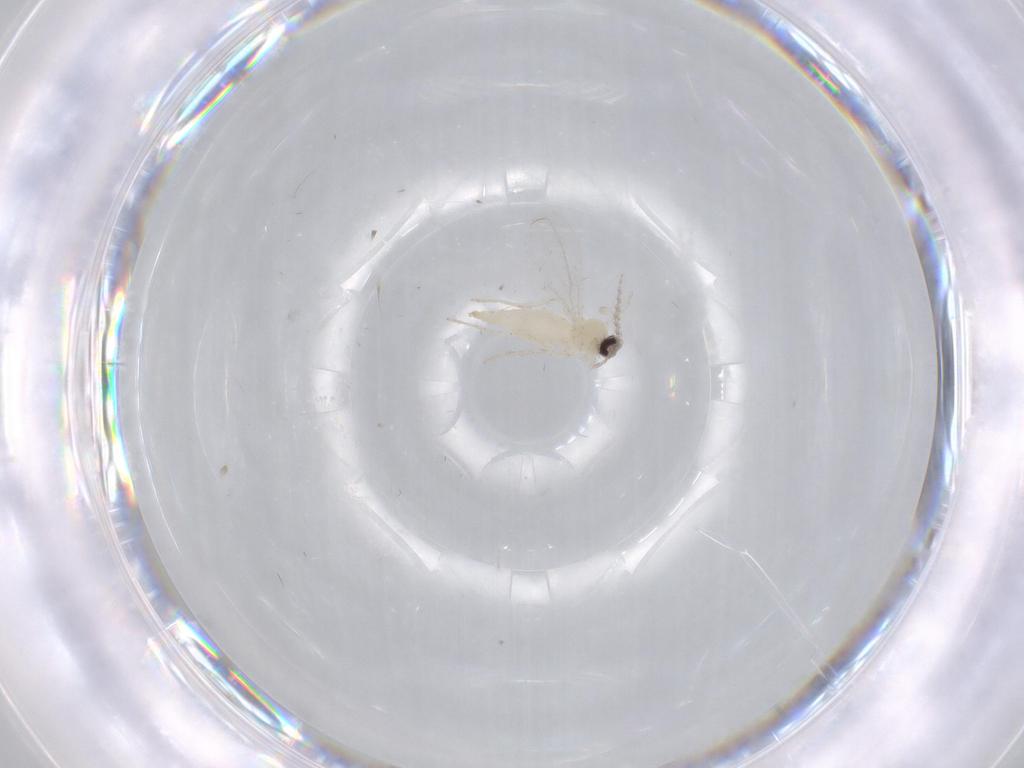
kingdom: Animalia
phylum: Arthropoda
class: Insecta
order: Diptera
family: Cecidomyiidae
